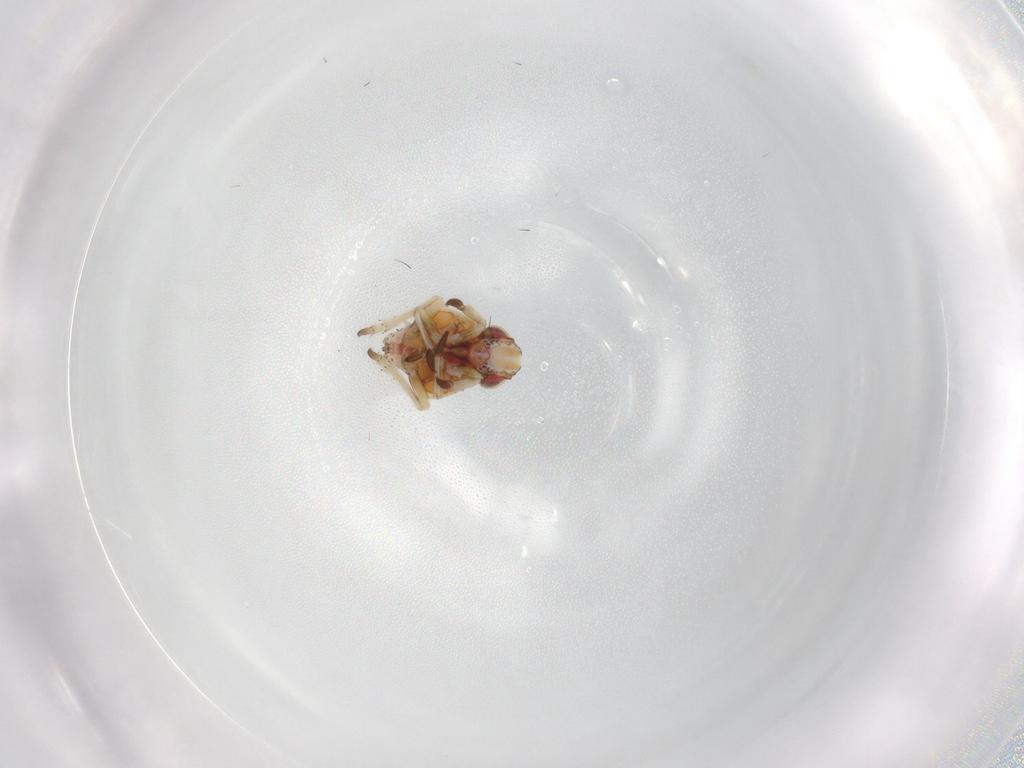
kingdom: Animalia
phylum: Arthropoda
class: Insecta
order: Hemiptera
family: Tropiduchidae
